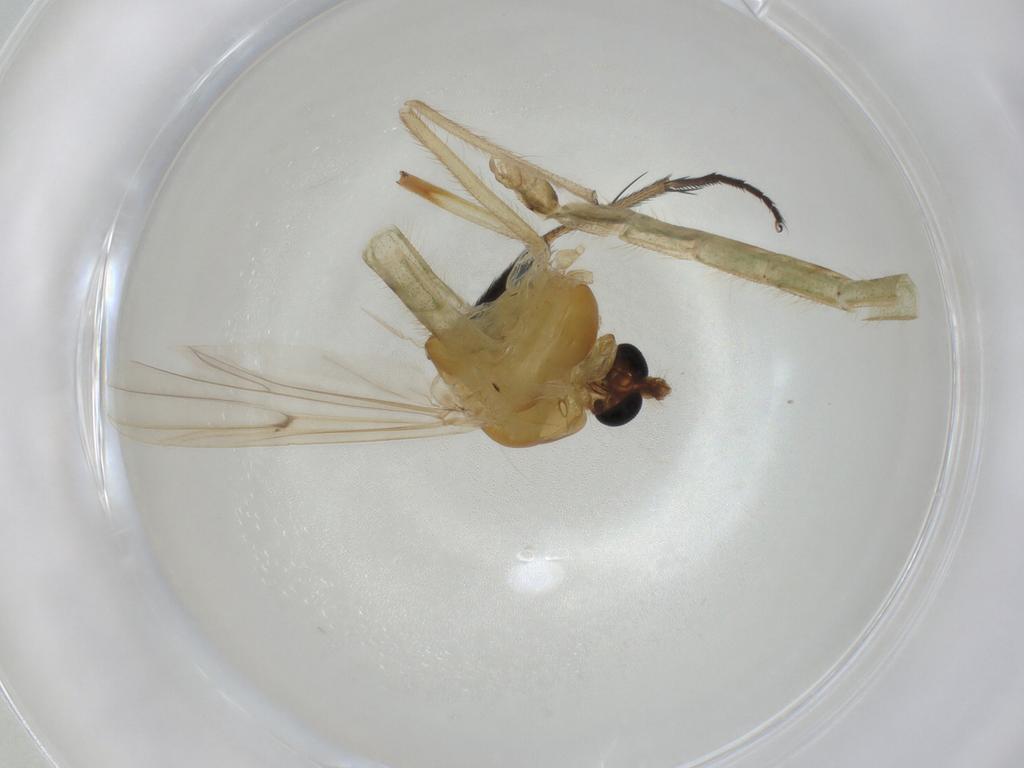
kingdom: Animalia
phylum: Arthropoda
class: Insecta
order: Diptera
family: Chironomidae
